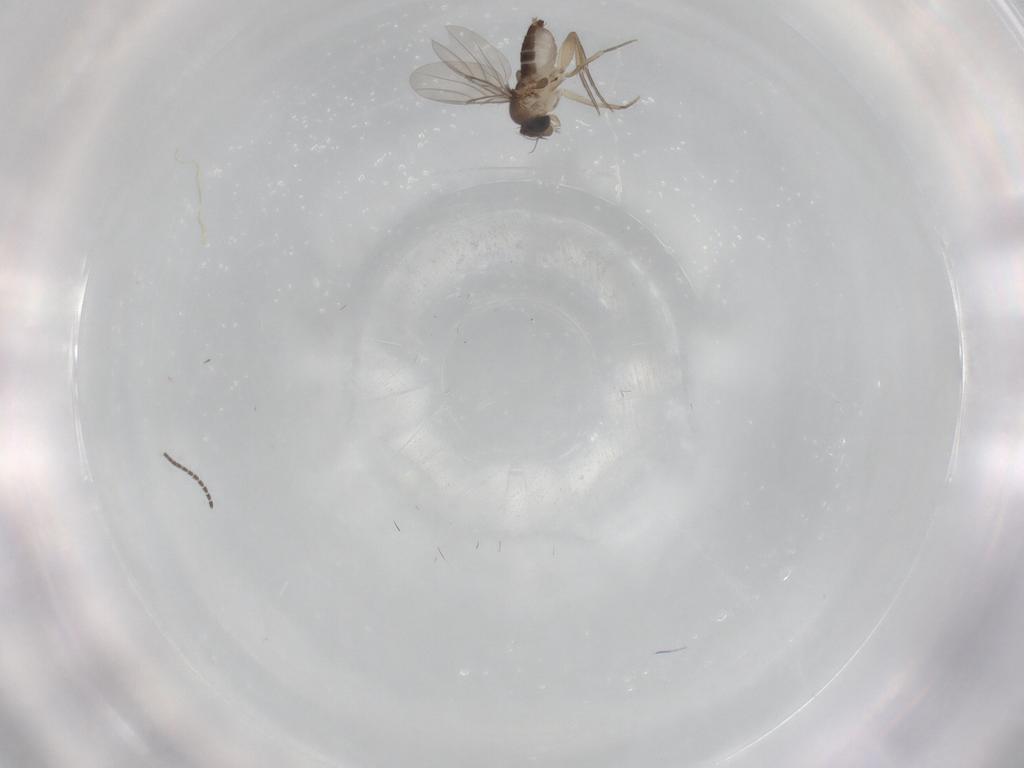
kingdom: Animalia
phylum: Arthropoda
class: Insecta
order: Diptera
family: Phoridae
